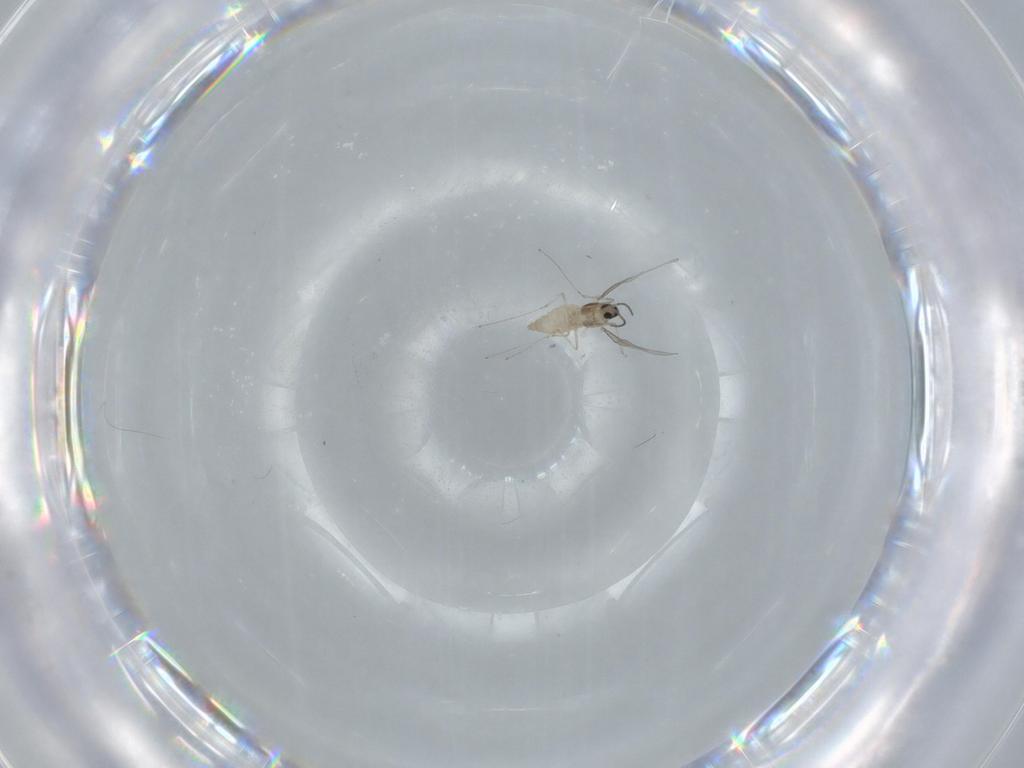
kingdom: Animalia
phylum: Arthropoda
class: Insecta
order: Diptera
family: Cecidomyiidae
